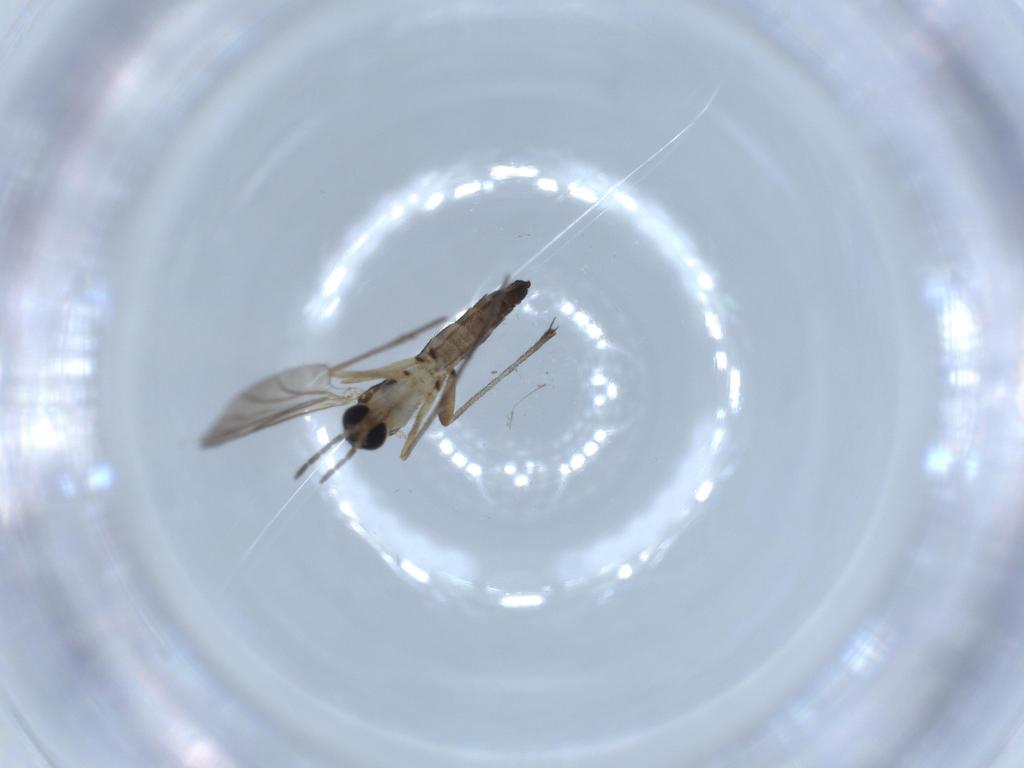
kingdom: Animalia
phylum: Arthropoda
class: Insecta
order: Diptera
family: Sciaridae
